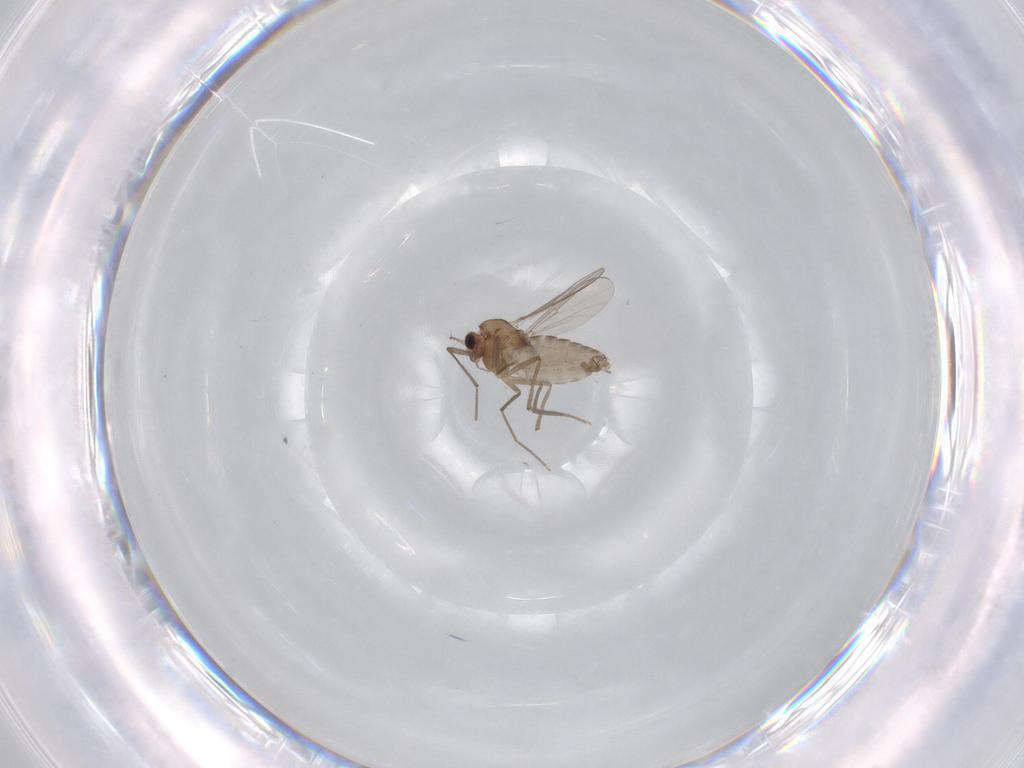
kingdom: Animalia
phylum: Arthropoda
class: Insecta
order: Diptera
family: Chironomidae
